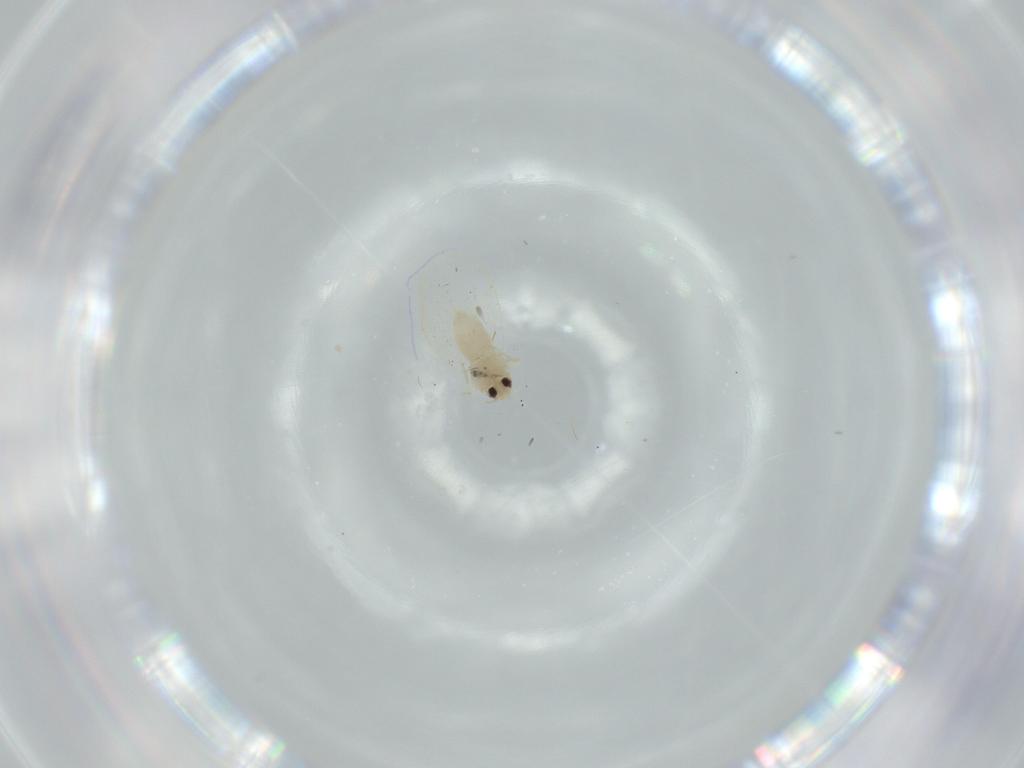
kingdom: Animalia
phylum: Arthropoda
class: Insecta
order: Hemiptera
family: Aleyrodidae
